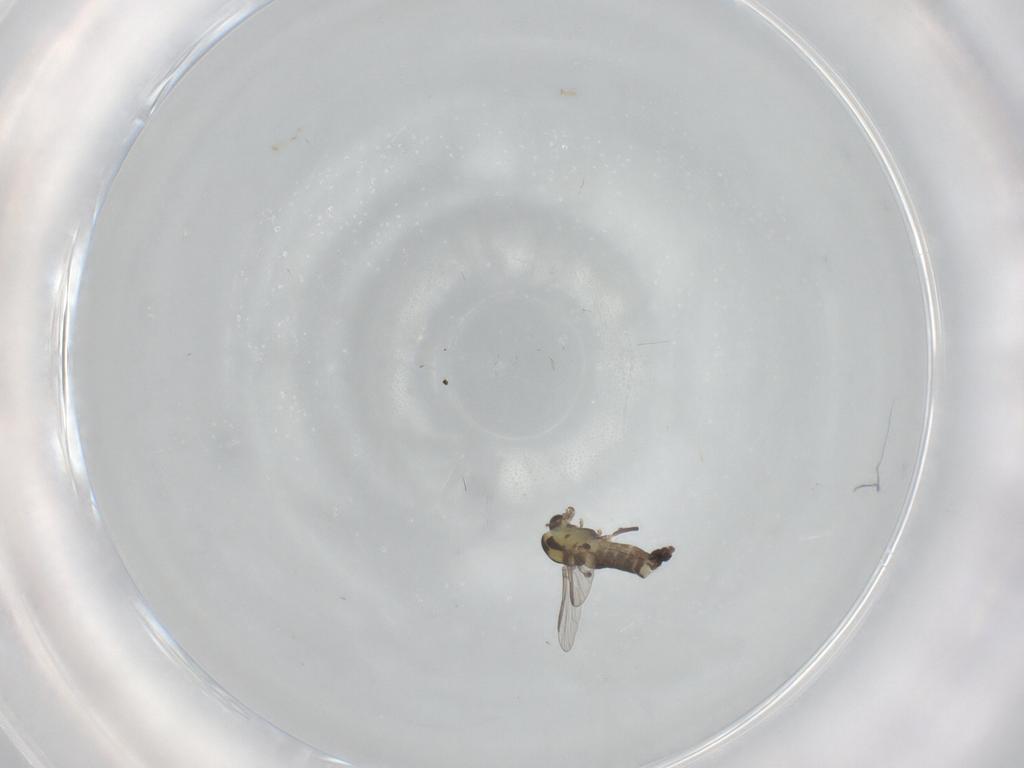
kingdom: Animalia
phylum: Arthropoda
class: Insecta
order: Diptera
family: Chironomidae
